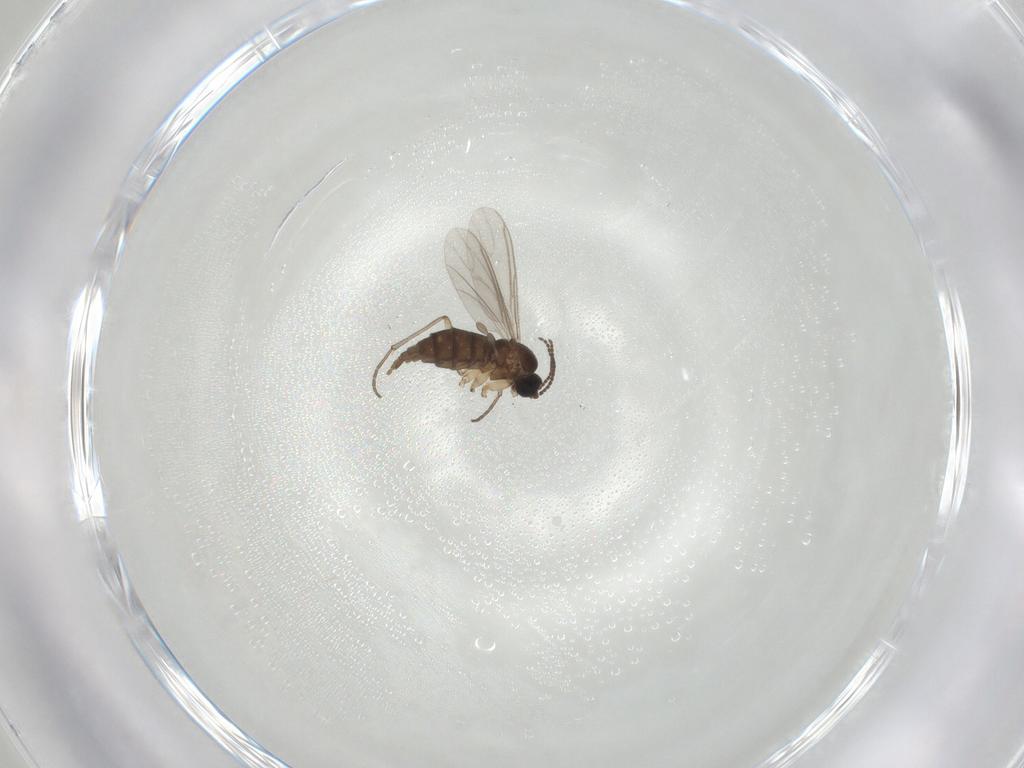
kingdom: Animalia
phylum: Arthropoda
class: Insecta
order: Diptera
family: Sciaridae
